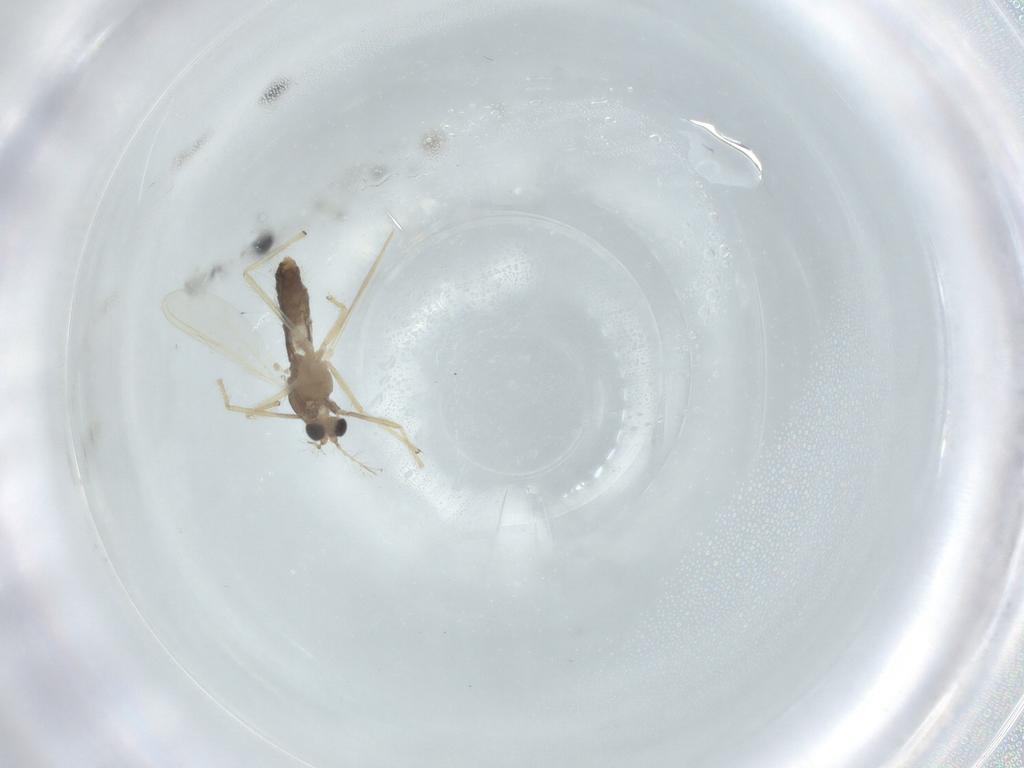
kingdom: Animalia
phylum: Arthropoda
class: Insecta
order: Diptera
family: Chironomidae
